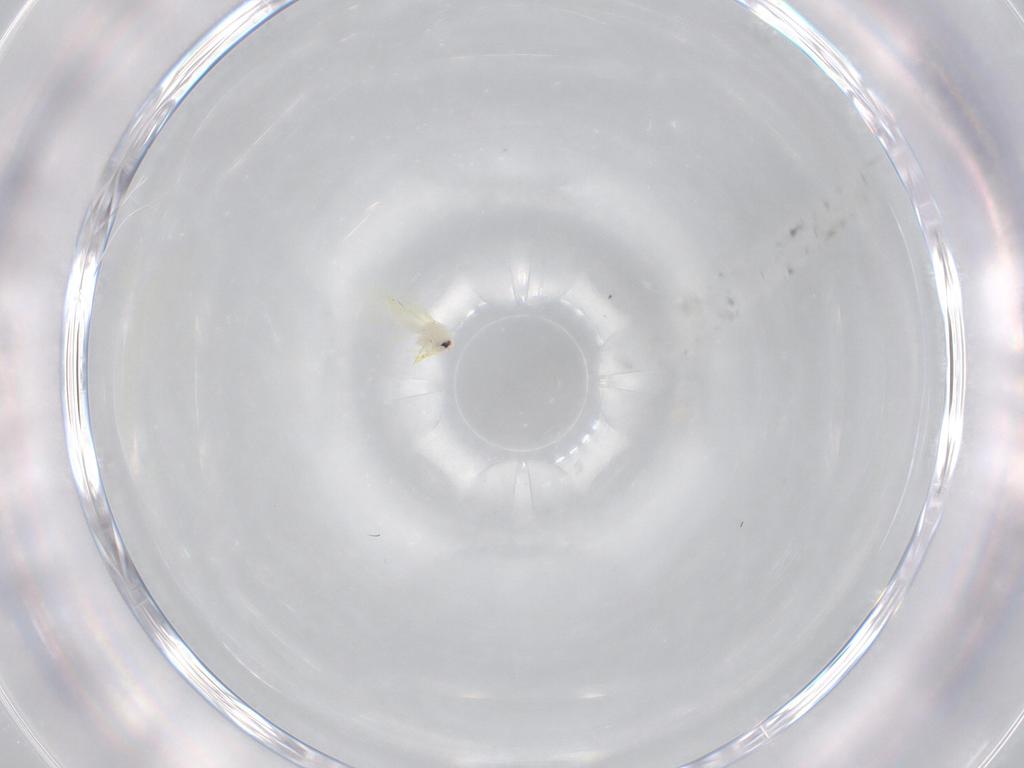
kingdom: Animalia
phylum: Arthropoda
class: Insecta
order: Hemiptera
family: Aleyrodidae
